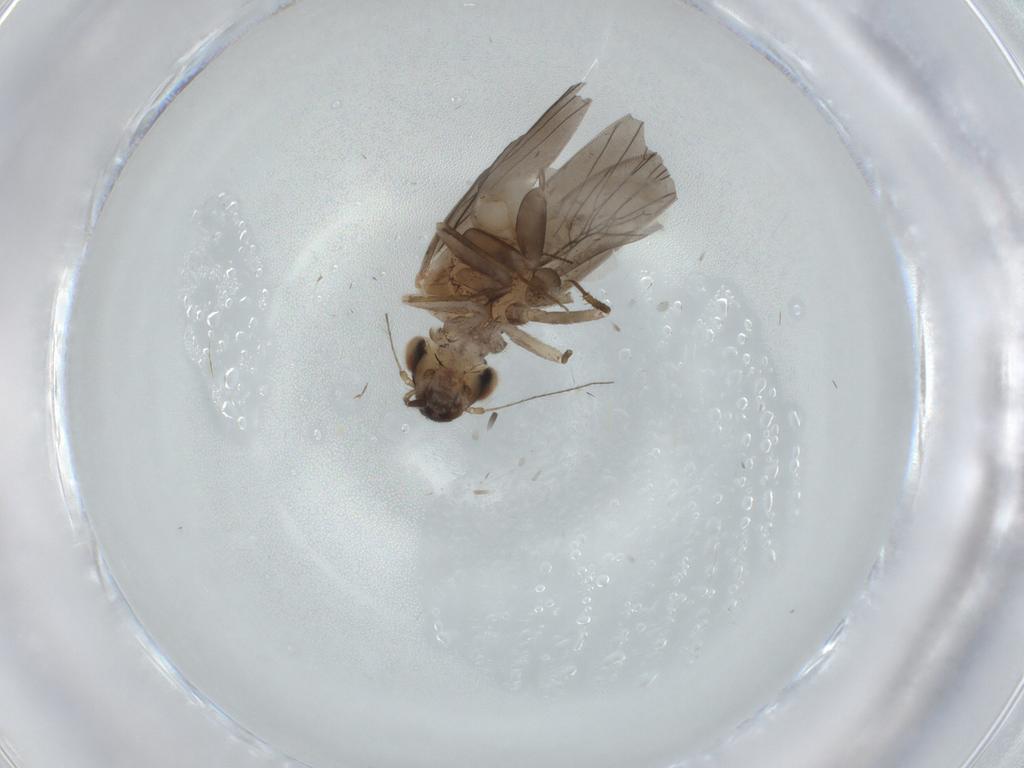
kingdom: Animalia
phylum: Arthropoda
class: Insecta
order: Psocodea
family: Lepidopsocidae
